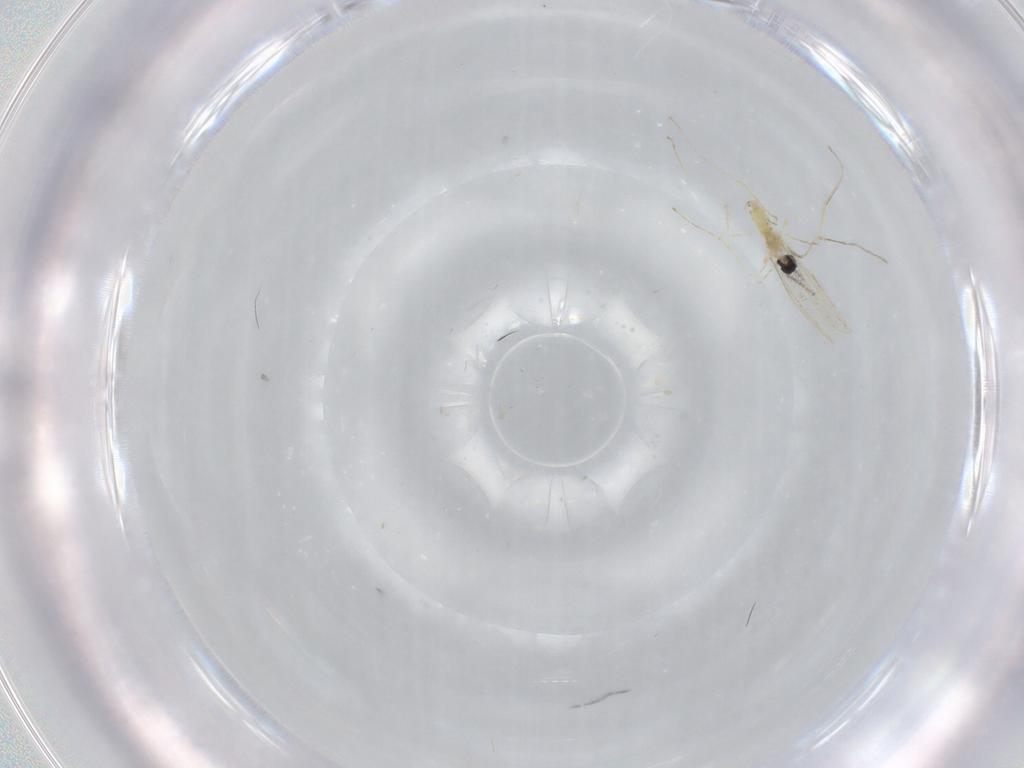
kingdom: Animalia
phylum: Arthropoda
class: Insecta
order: Diptera
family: Cecidomyiidae
